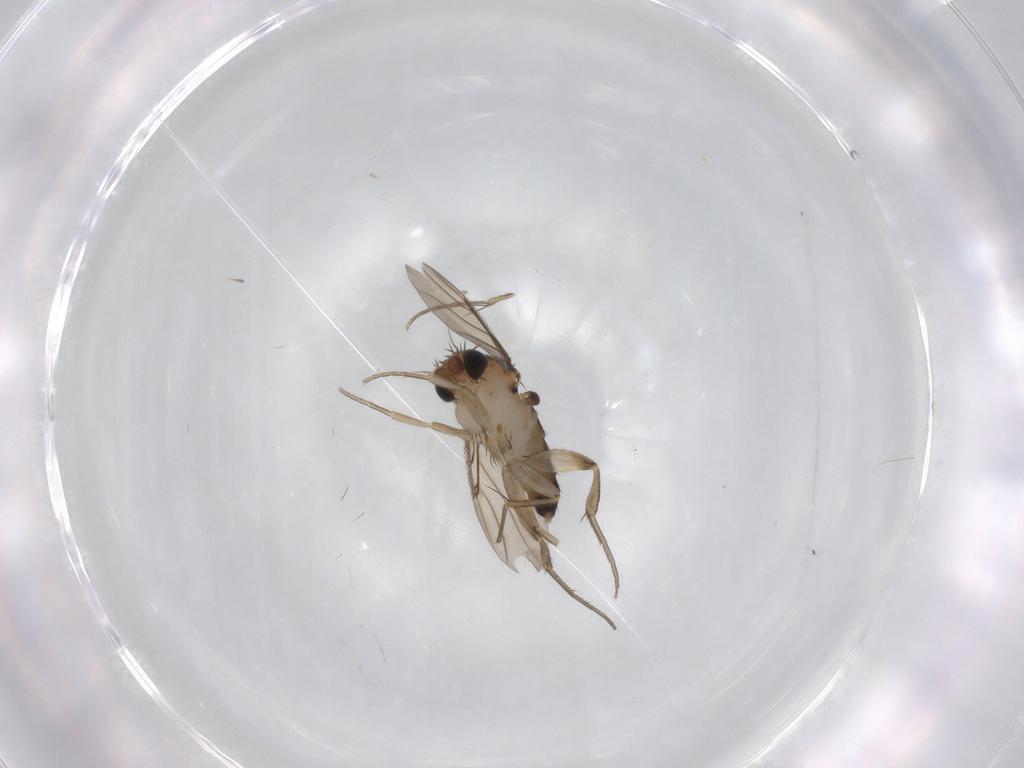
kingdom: Animalia
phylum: Arthropoda
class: Insecta
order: Diptera
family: Phoridae
